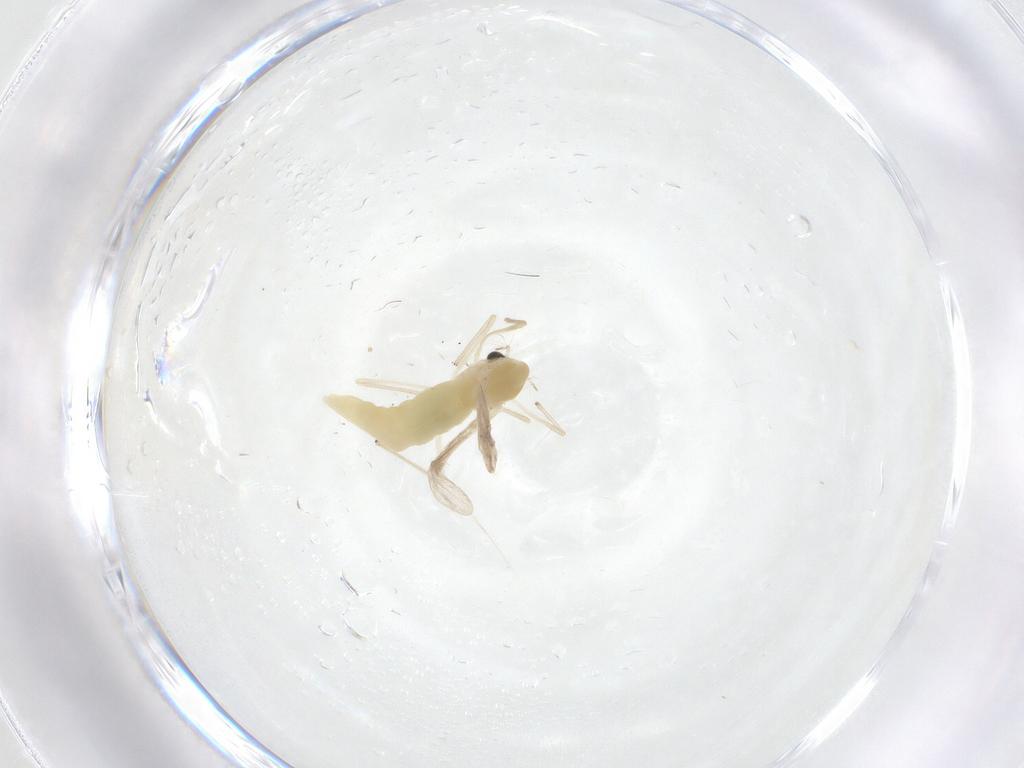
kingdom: Animalia
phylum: Arthropoda
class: Insecta
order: Diptera
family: Chironomidae
